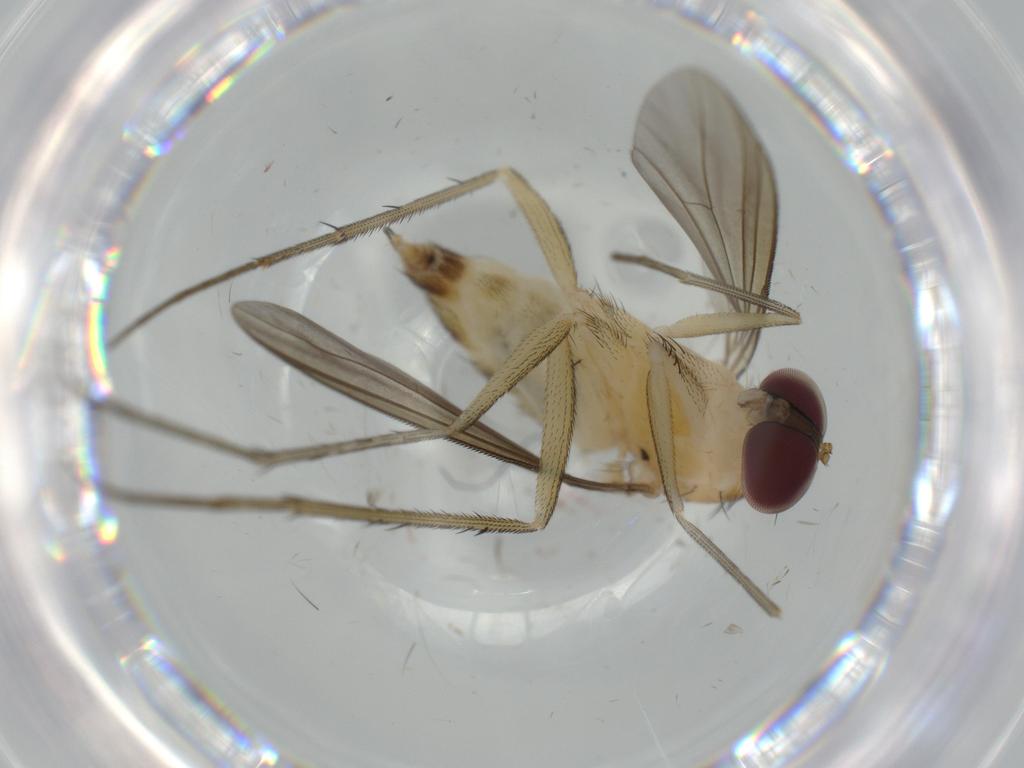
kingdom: Animalia
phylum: Arthropoda
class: Insecta
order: Diptera
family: Dolichopodidae
